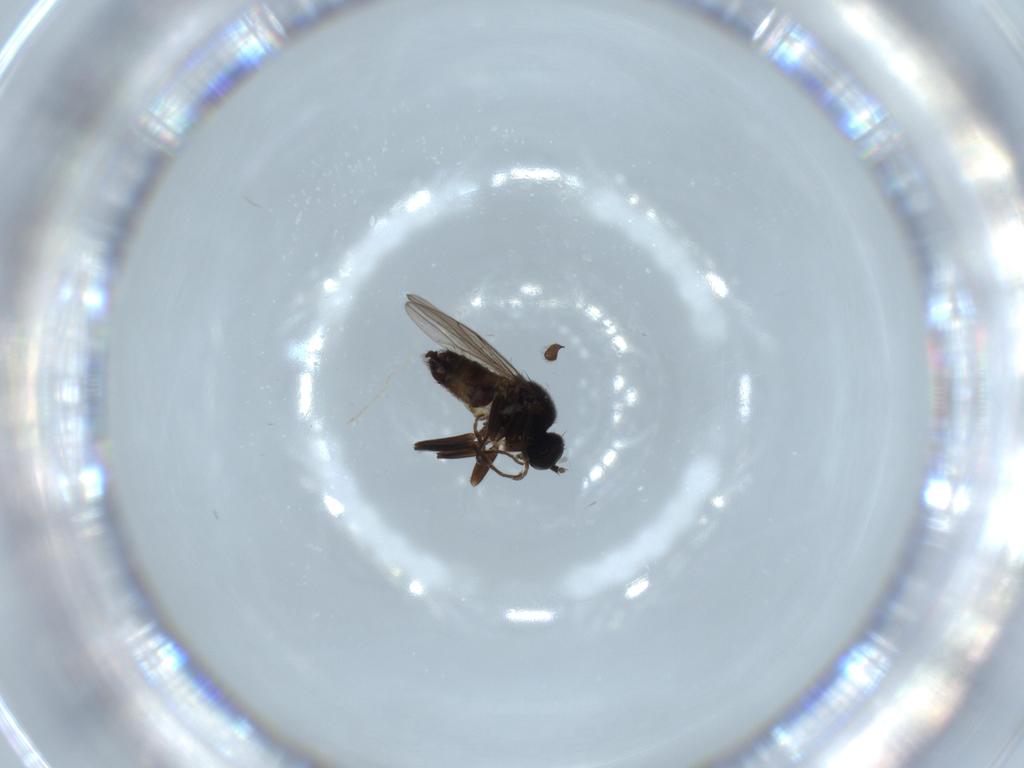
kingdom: Animalia
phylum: Arthropoda
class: Insecta
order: Diptera
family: Hybotidae
